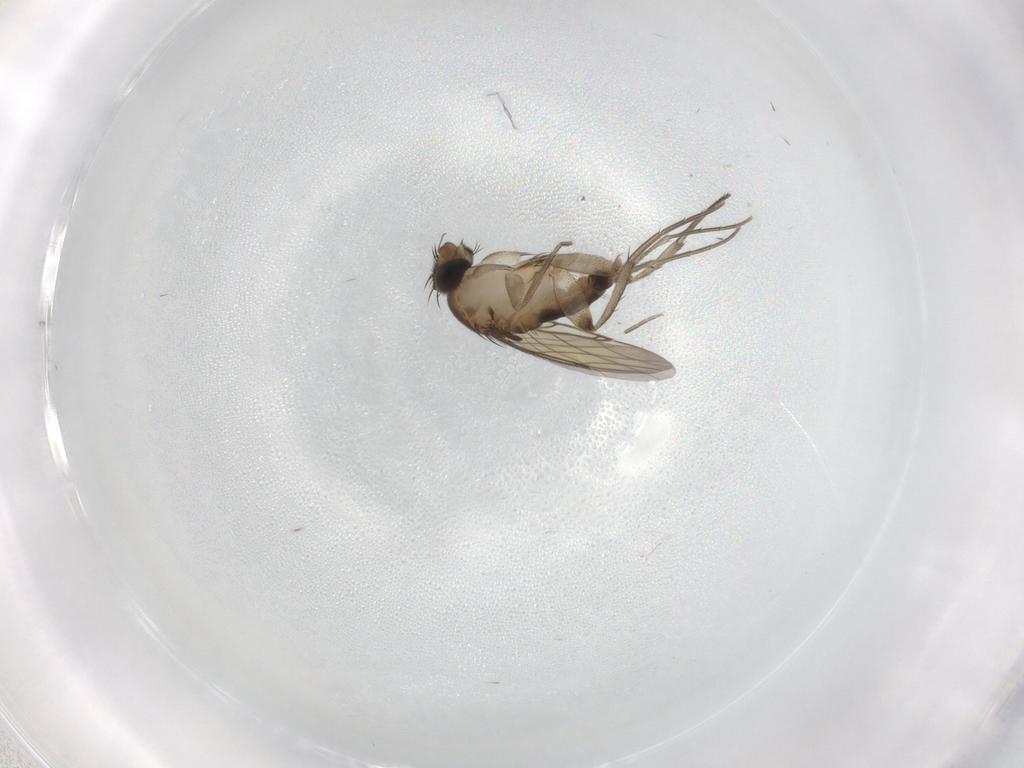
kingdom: Animalia
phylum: Arthropoda
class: Insecta
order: Diptera
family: Phoridae
